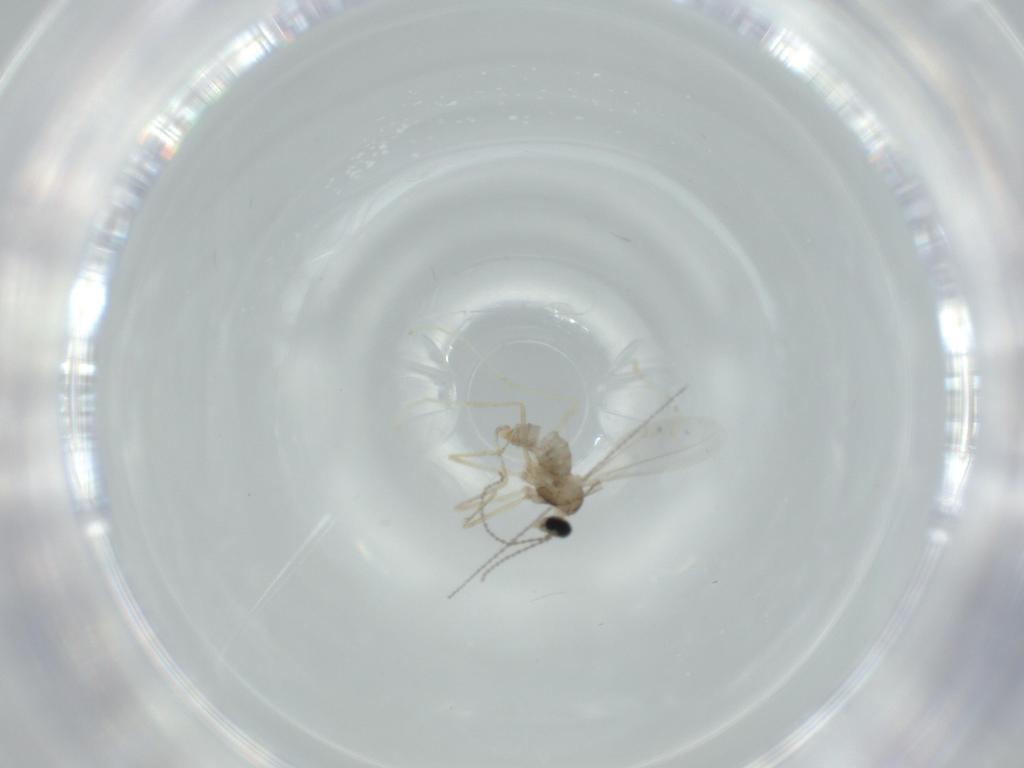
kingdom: Animalia
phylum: Arthropoda
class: Insecta
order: Diptera
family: Cecidomyiidae
